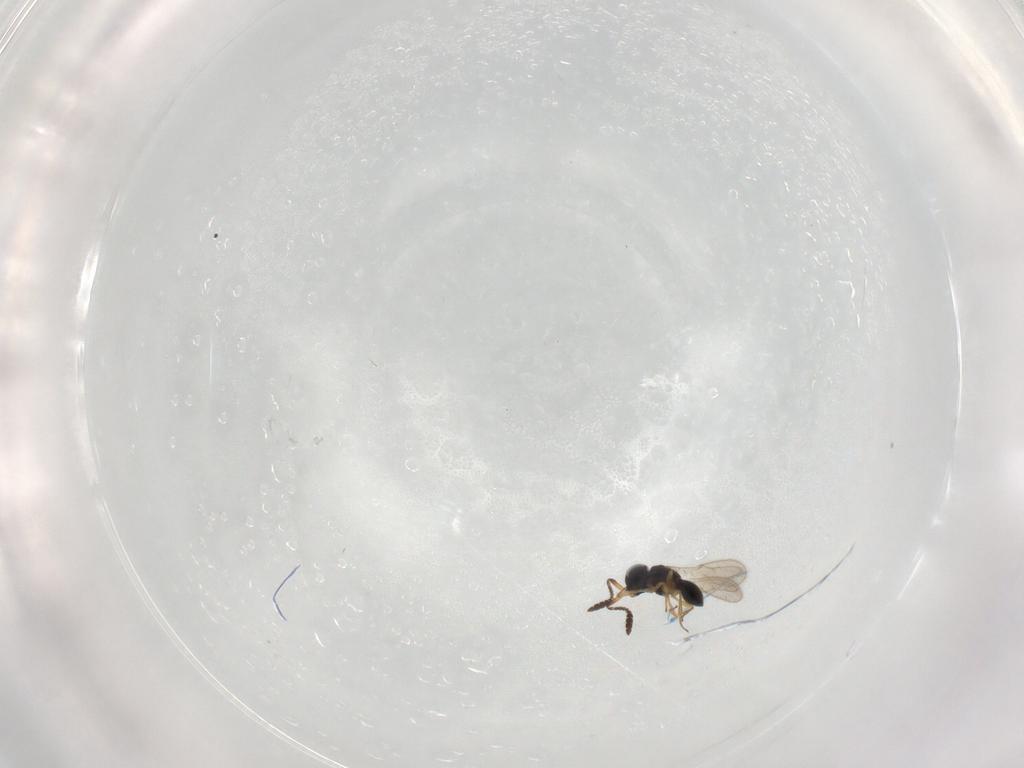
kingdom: Animalia
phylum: Arthropoda
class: Insecta
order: Hymenoptera
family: Scelionidae
